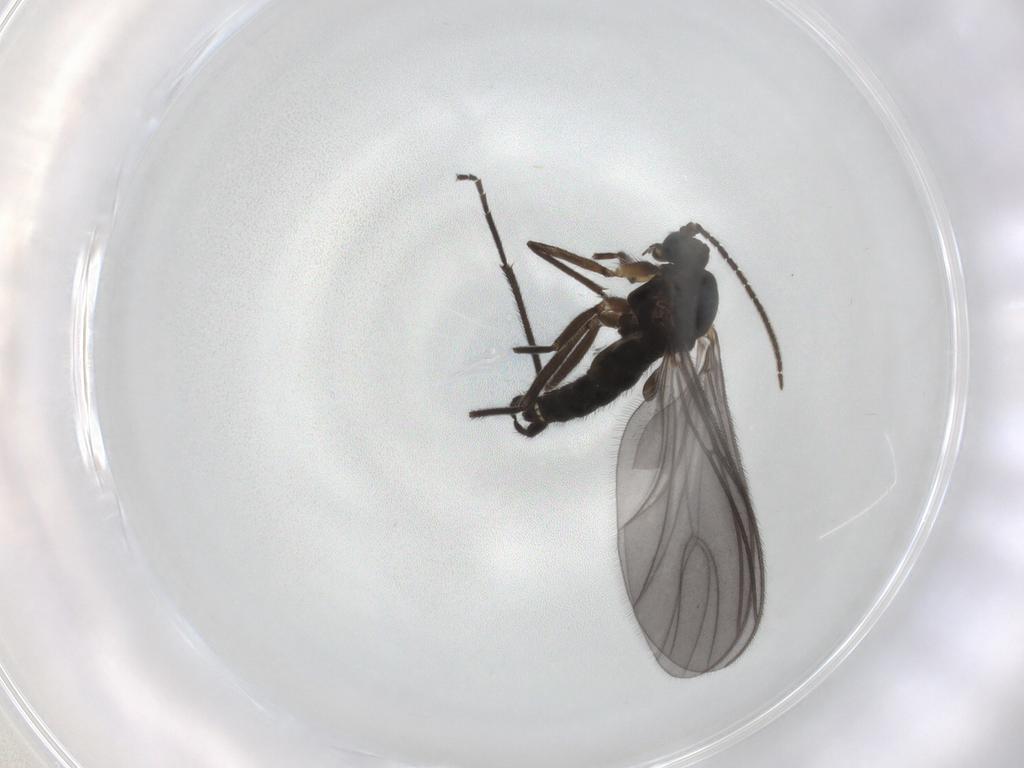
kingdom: Animalia
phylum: Arthropoda
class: Insecta
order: Diptera
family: Sciaridae
